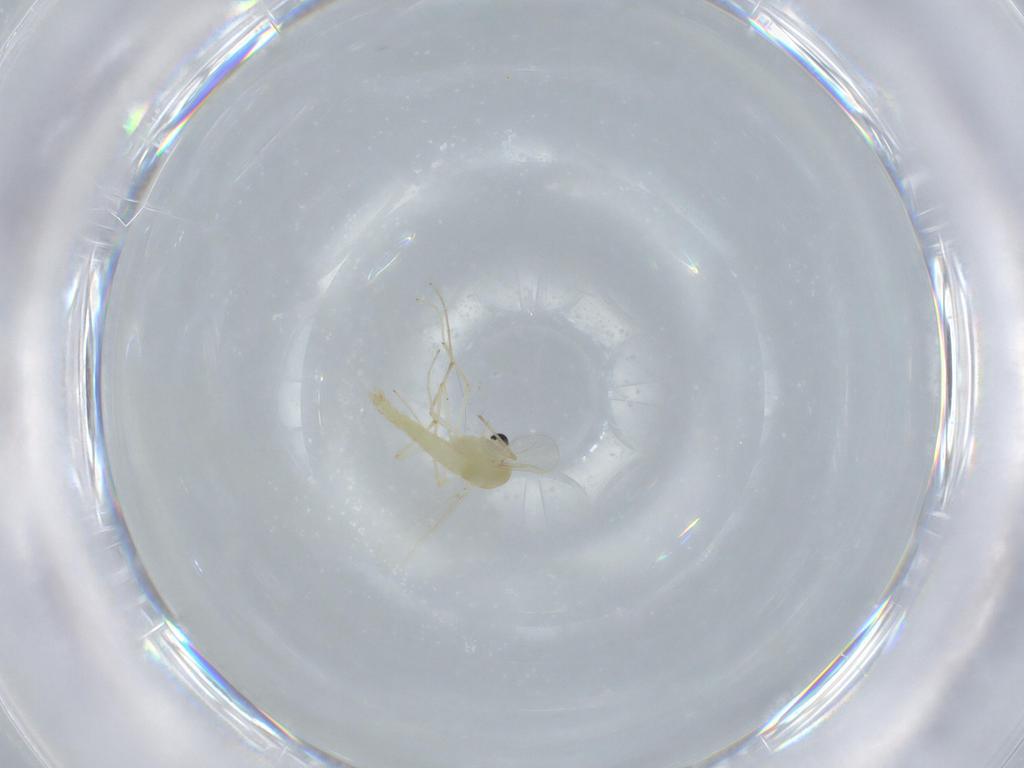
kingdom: Animalia
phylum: Arthropoda
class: Insecta
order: Diptera
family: Chironomidae
